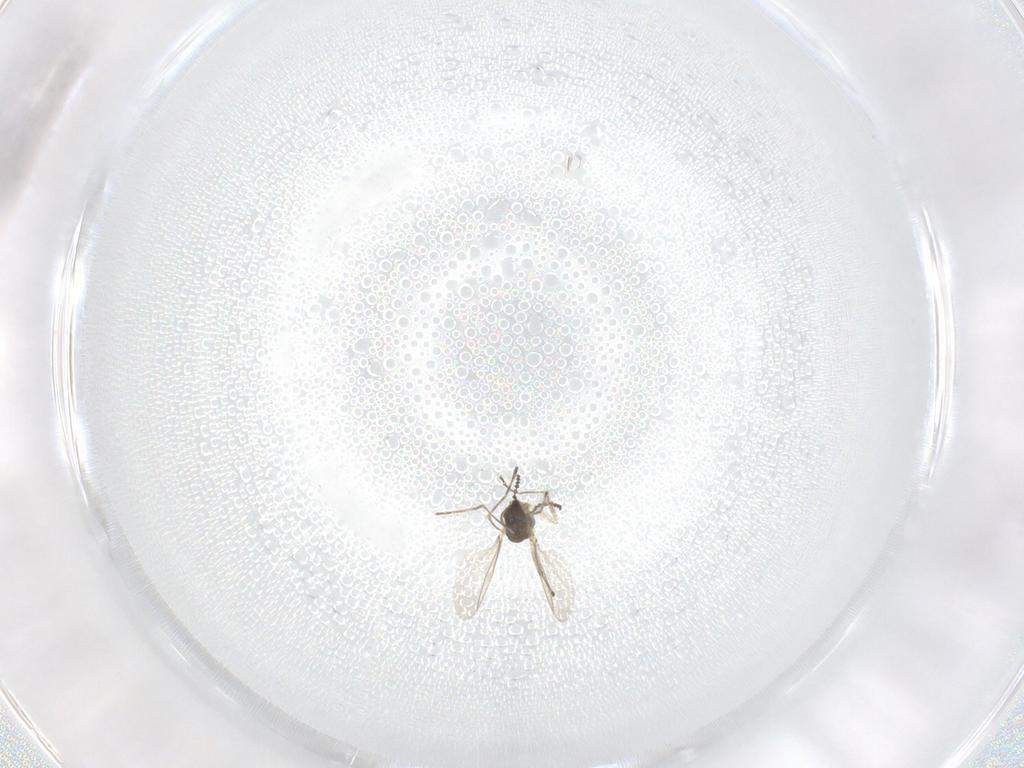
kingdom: Animalia
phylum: Arthropoda
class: Insecta
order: Diptera
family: Cecidomyiidae
